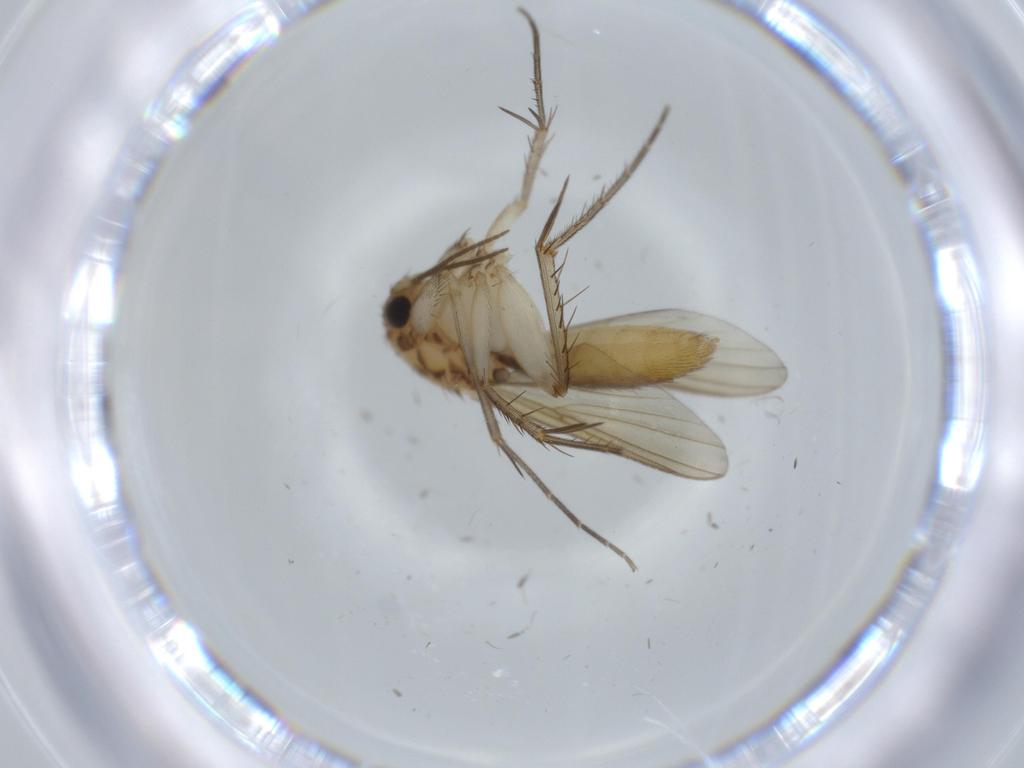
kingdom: Animalia
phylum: Arthropoda
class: Insecta
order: Diptera
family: Mycetophilidae
